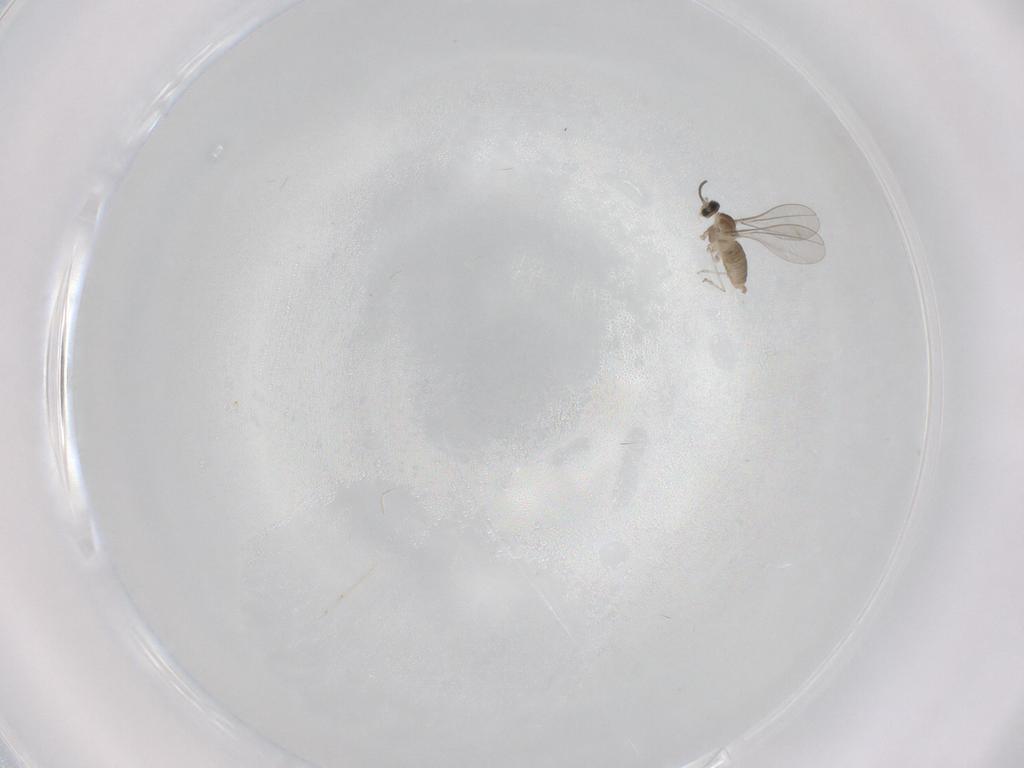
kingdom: Animalia
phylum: Arthropoda
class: Insecta
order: Diptera
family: Cecidomyiidae
